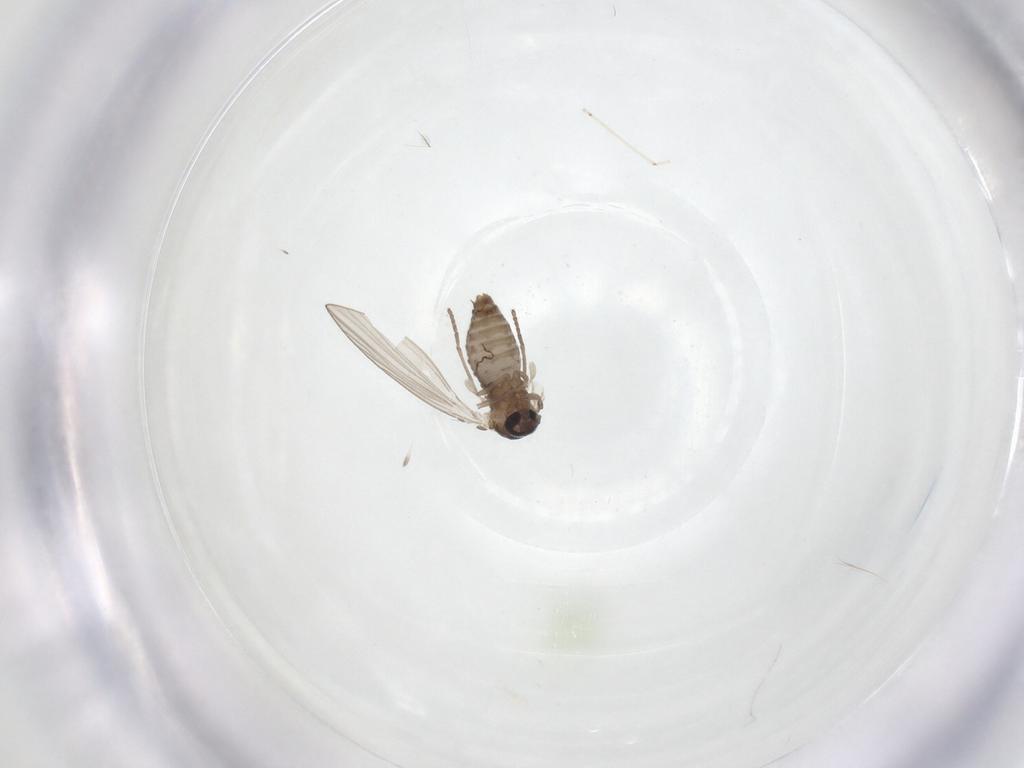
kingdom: Animalia
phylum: Arthropoda
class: Insecta
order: Diptera
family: Psychodidae
